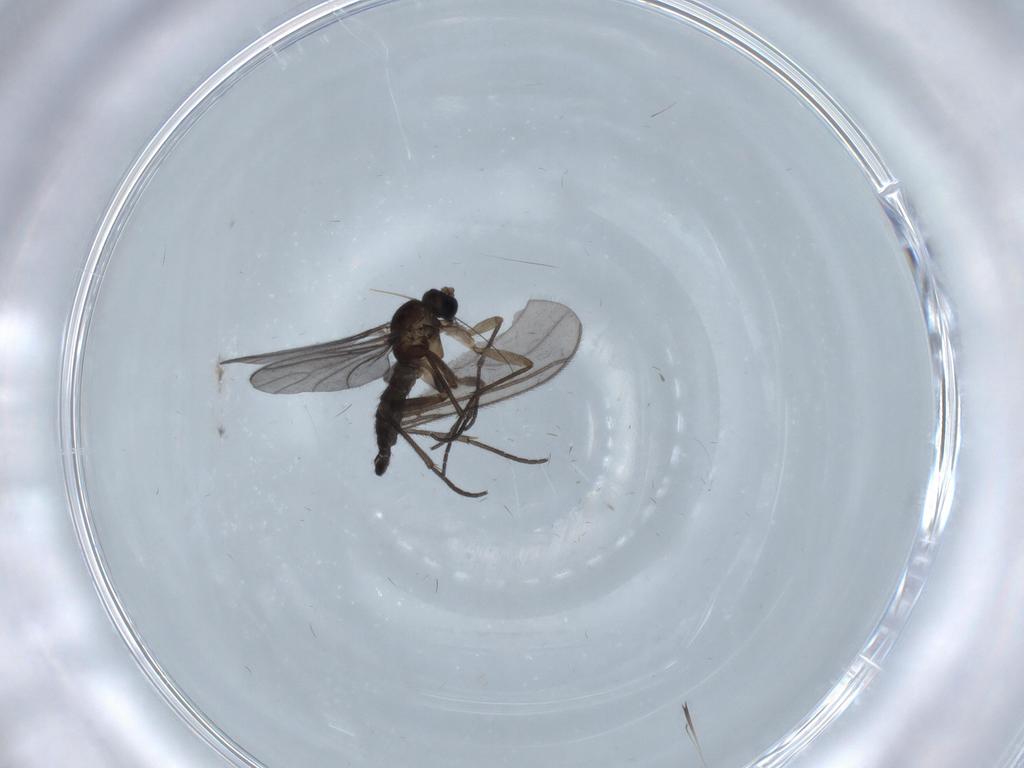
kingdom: Animalia
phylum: Arthropoda
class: Insecta
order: Diptera
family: Sciaridae
